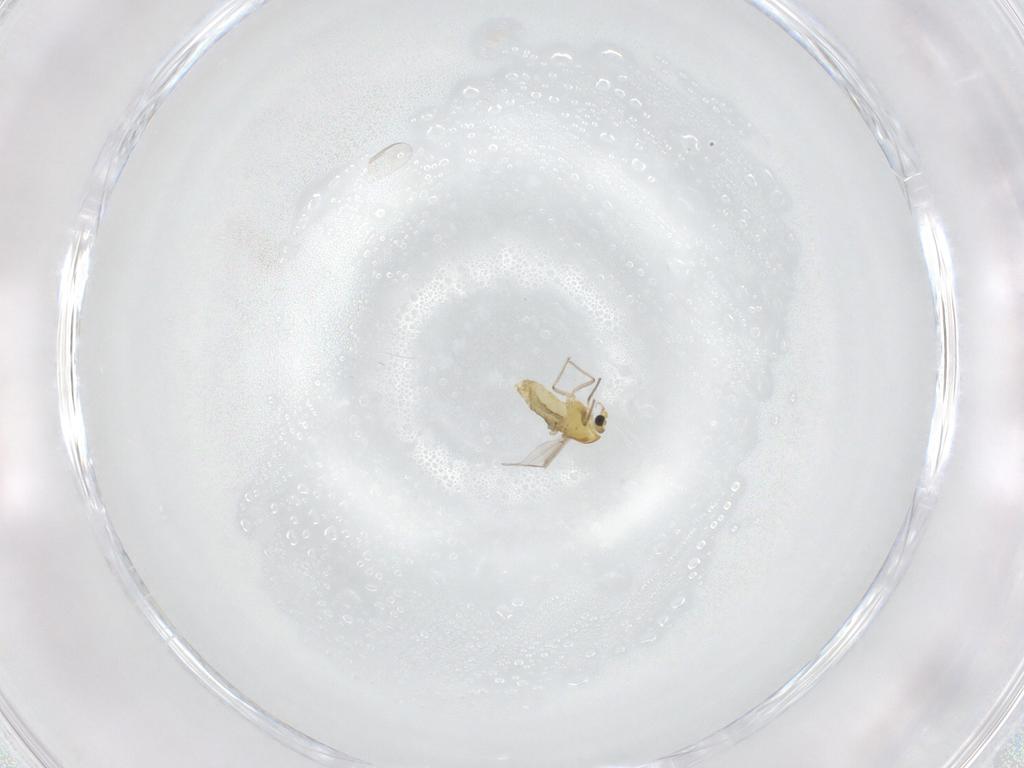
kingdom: Animalia
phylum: Arthropoda
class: Insecta
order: Diptera
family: Chironomidae
